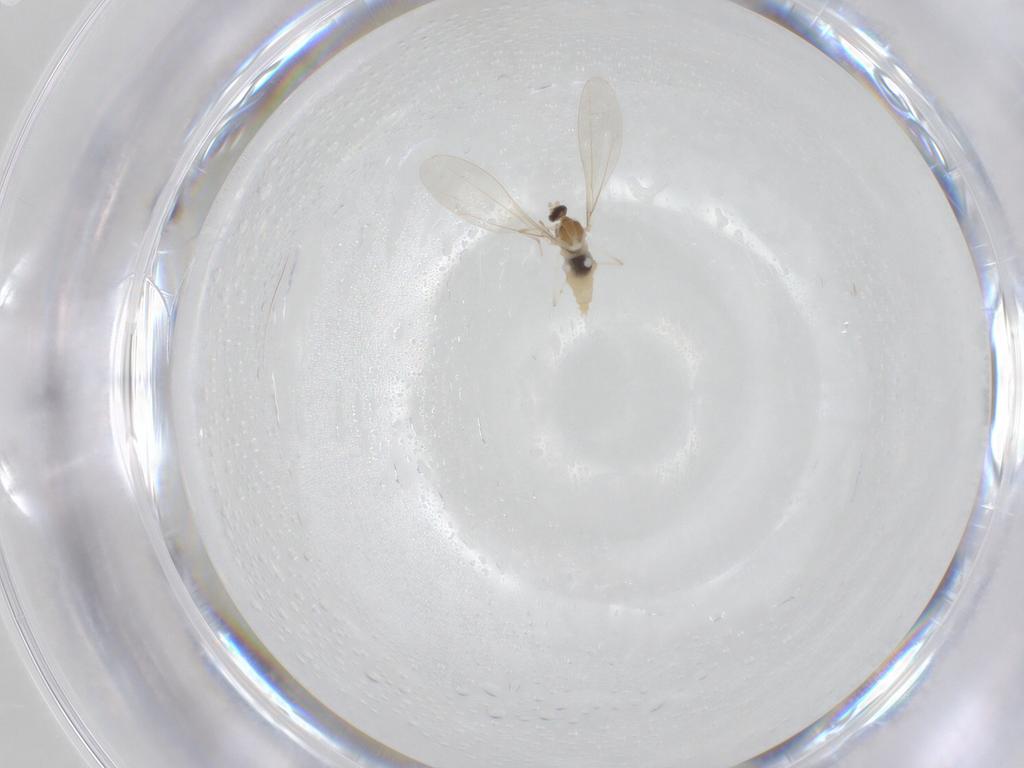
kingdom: Animalia
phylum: Arthropoda
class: Insecta
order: Diptera
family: Cecidomyiidae
